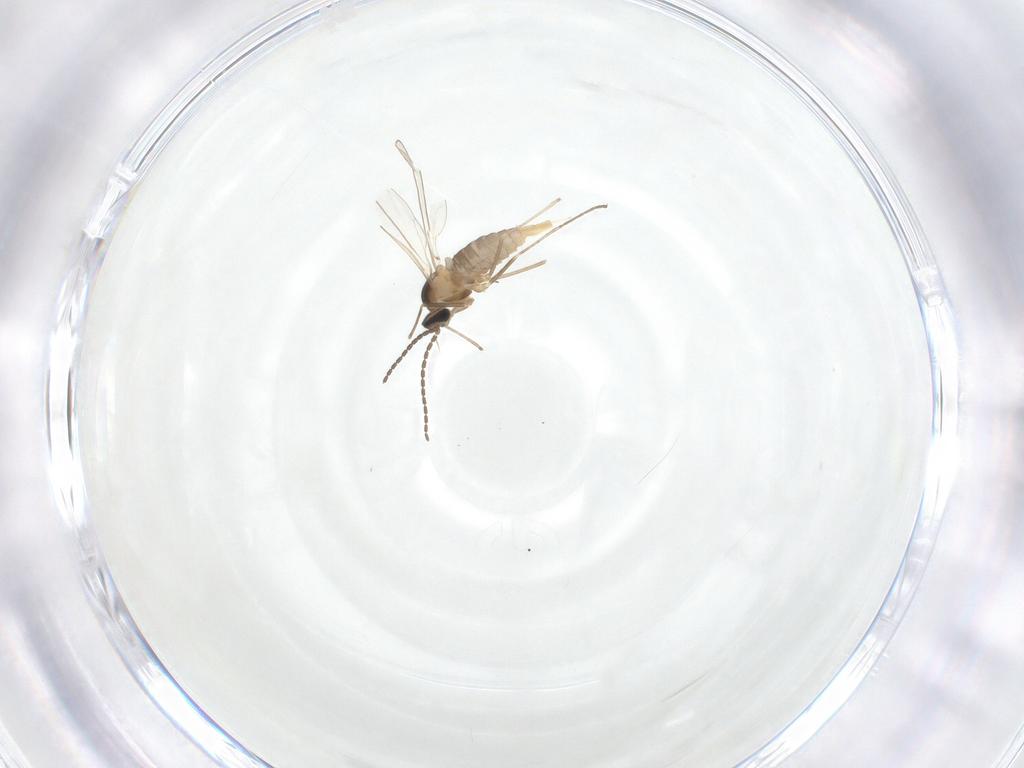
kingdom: Animalia
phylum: Arthropoda
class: Insecta
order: Diptera
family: Cecidomyiidae
